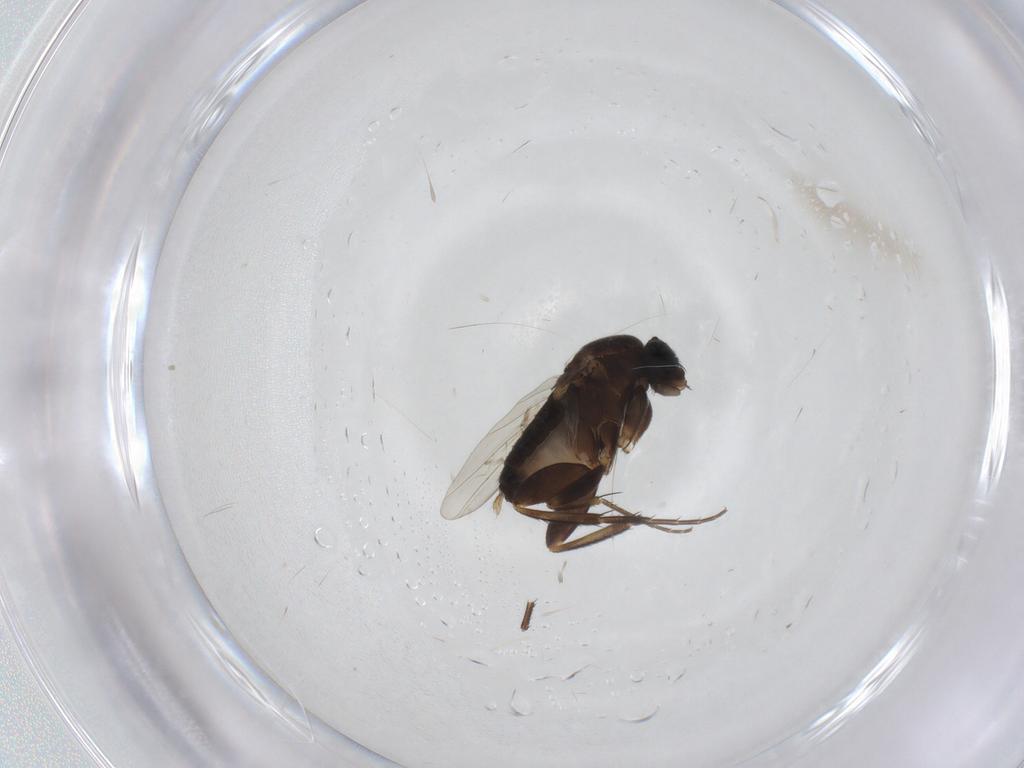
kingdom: Animalia
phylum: Arthropoda
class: Insecta
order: Diptera
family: Phoridae
